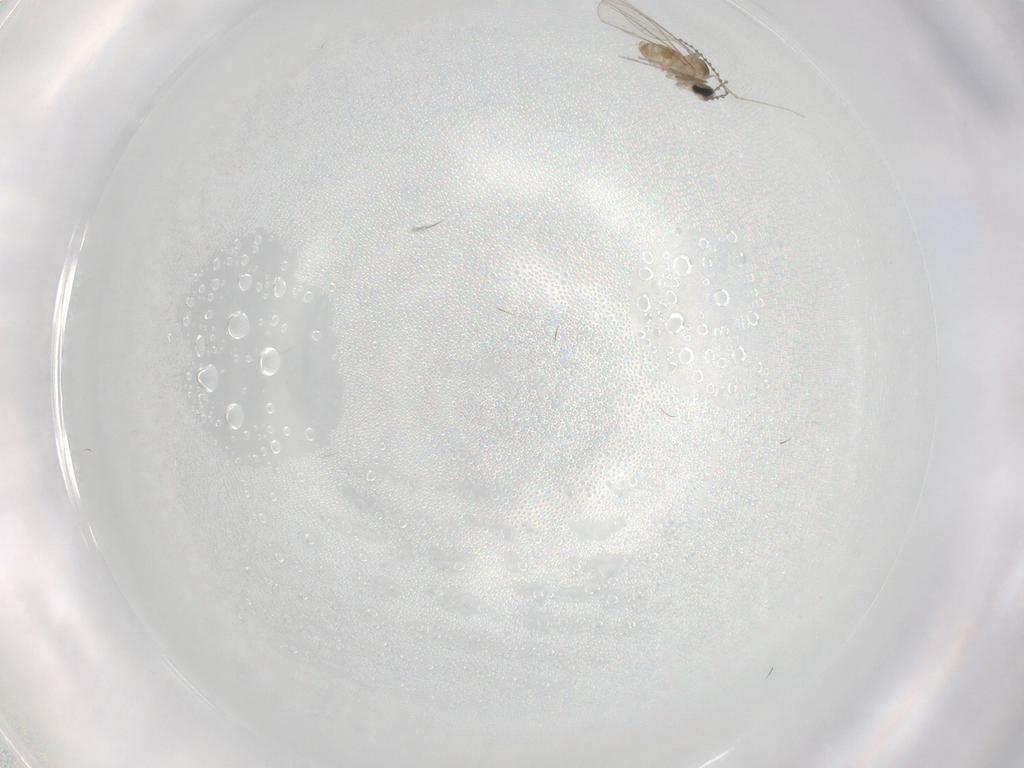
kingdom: Animalia
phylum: Arthropoda
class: Insecta
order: Diptera
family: Cecidomyiidae
